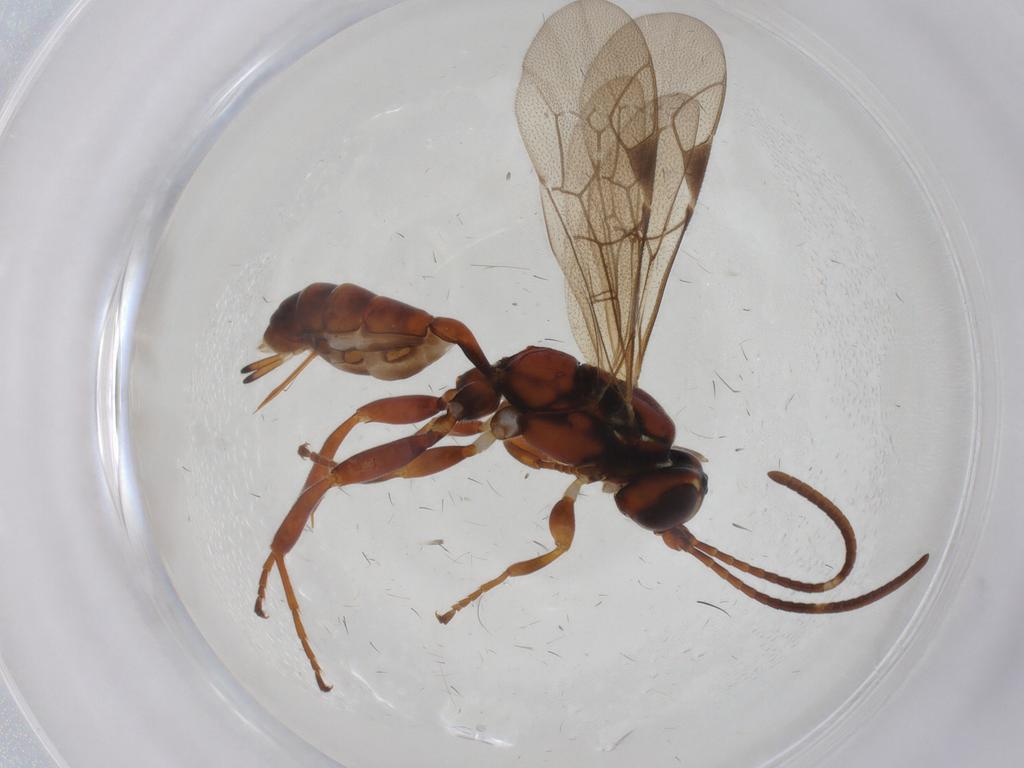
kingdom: Animalia
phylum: Arthropoda
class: Insecta
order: Hymenoptera
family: Ichneumonidae
